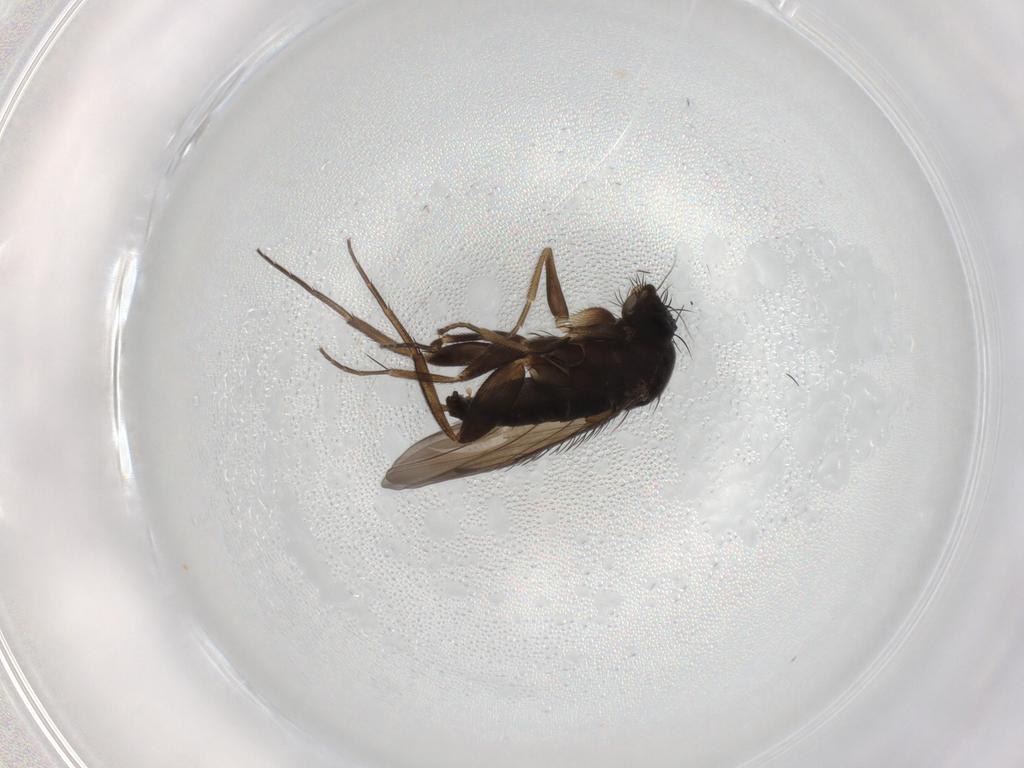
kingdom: Animalia
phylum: Arthropoda
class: Insecta
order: Diptera
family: Phoridae
